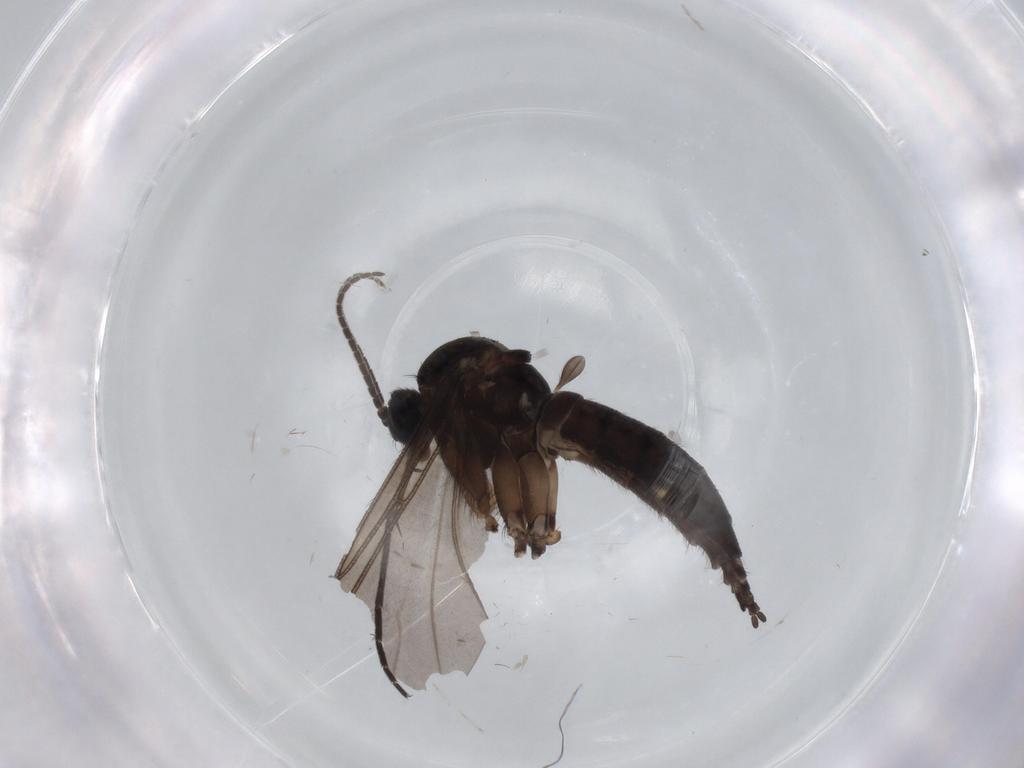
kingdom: Animalia
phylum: Arthropoda
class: Insecta
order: Diptera
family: Sciaridae
